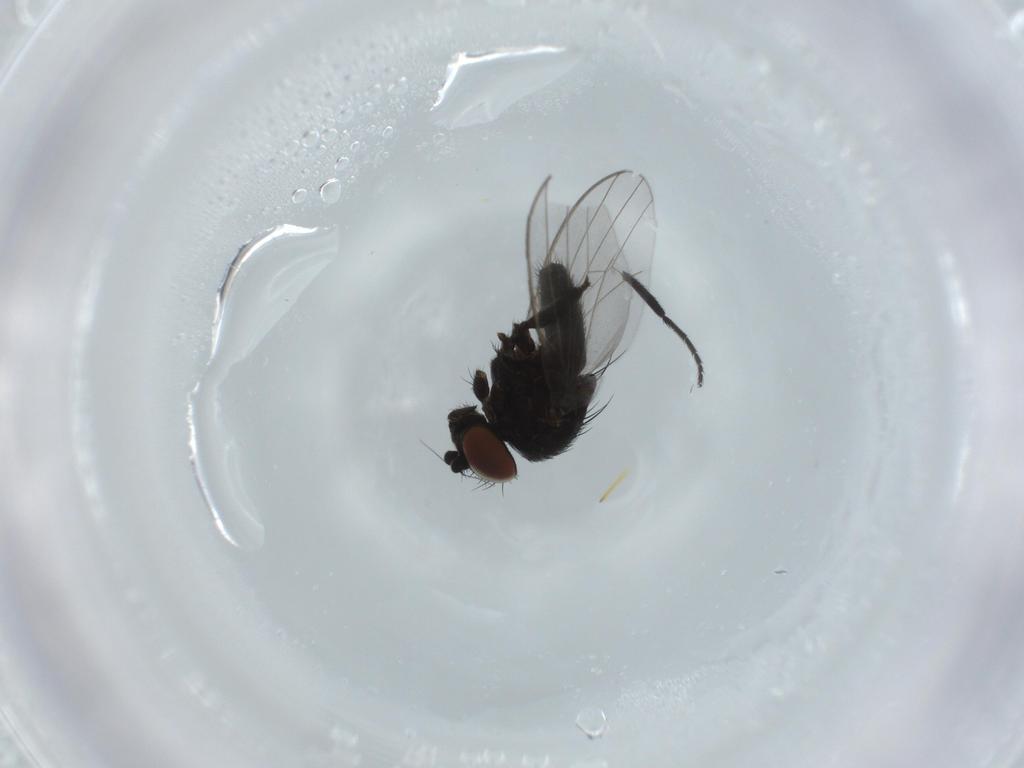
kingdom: Animalia
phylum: Arthropoda
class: Insecta
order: Diptera
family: Milichiidae
